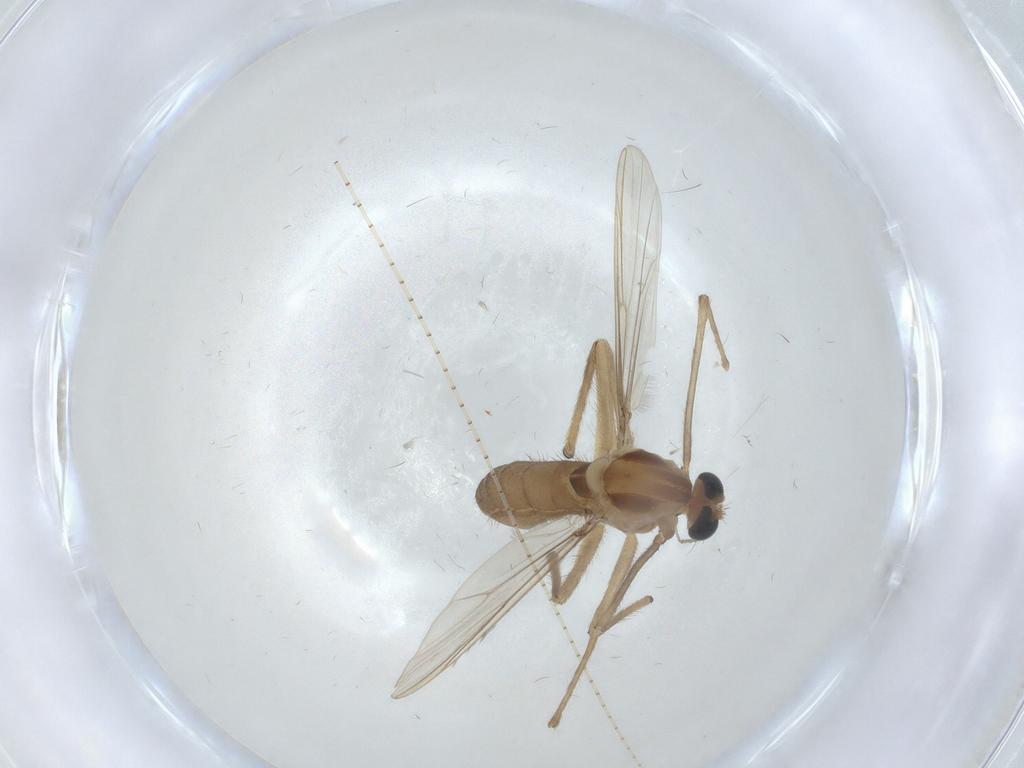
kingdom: Animalia
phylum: Arthropoda
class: Insecta
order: Diptera
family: Chironomidae
